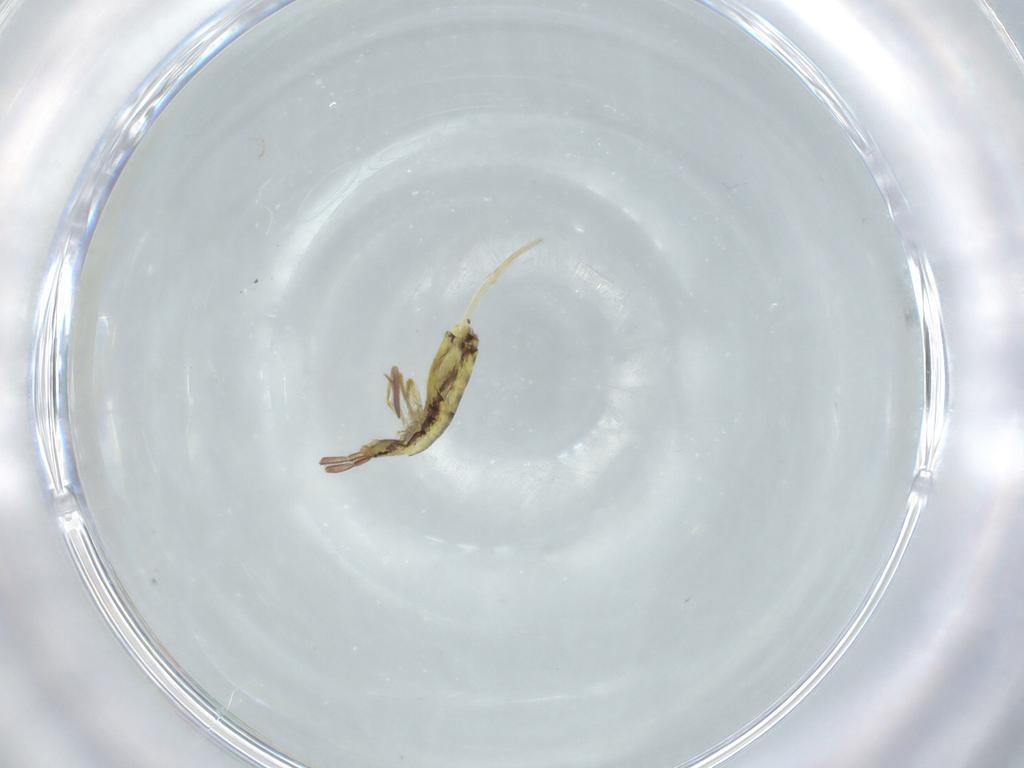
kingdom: Animalia
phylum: Arthropoda
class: Collembola
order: Entomobryomorpha
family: Entomobryidae
